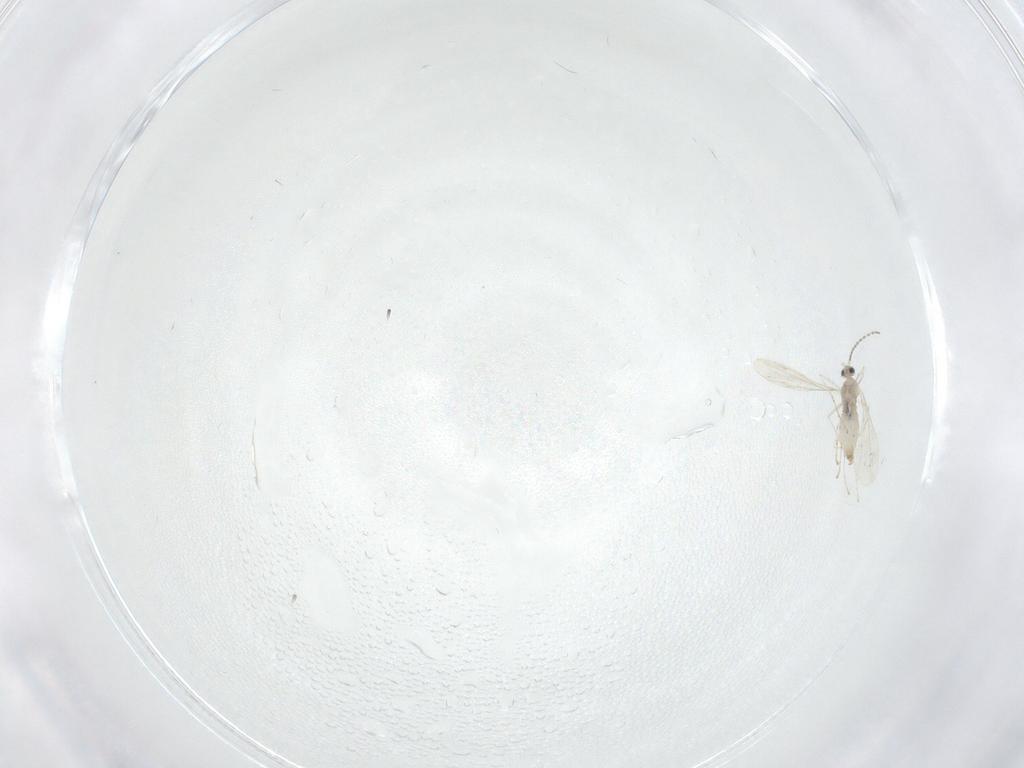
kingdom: Animalia
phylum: Arthropoda
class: Insecta
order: Diptera
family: Cecidomyiidae
